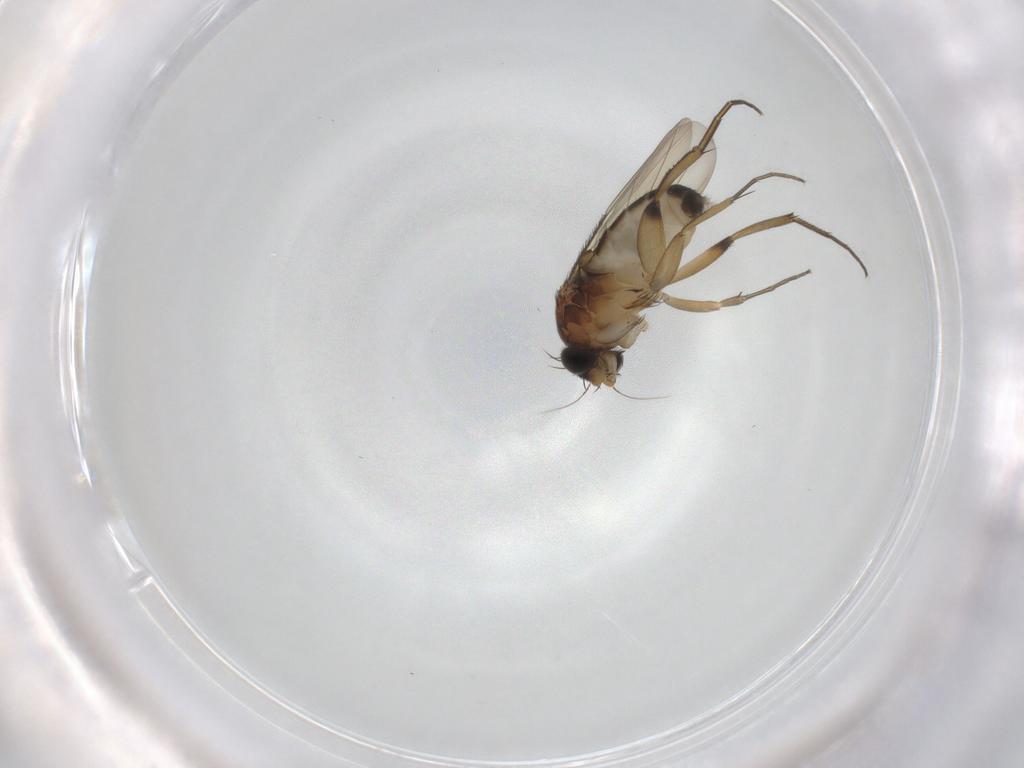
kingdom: Animalia
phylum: Arthropoda
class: Insecta
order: Diptera
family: Phoridae
